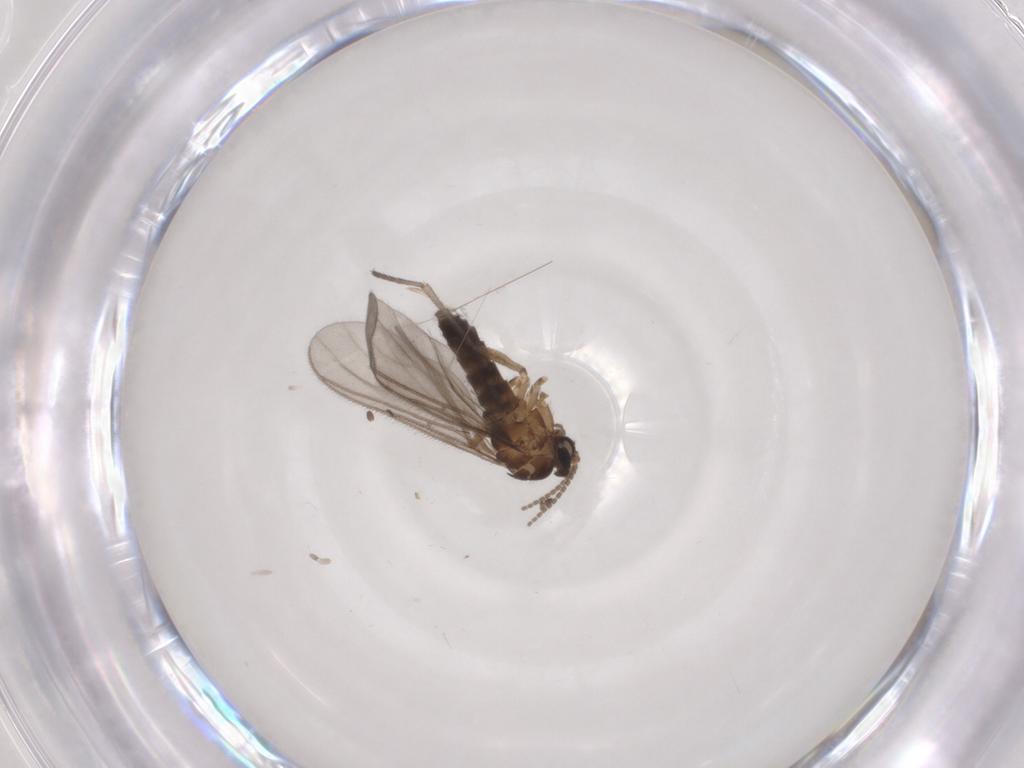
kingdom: Animalia
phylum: Arthropoda
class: Insecta
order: Diptera
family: Sciaridae
